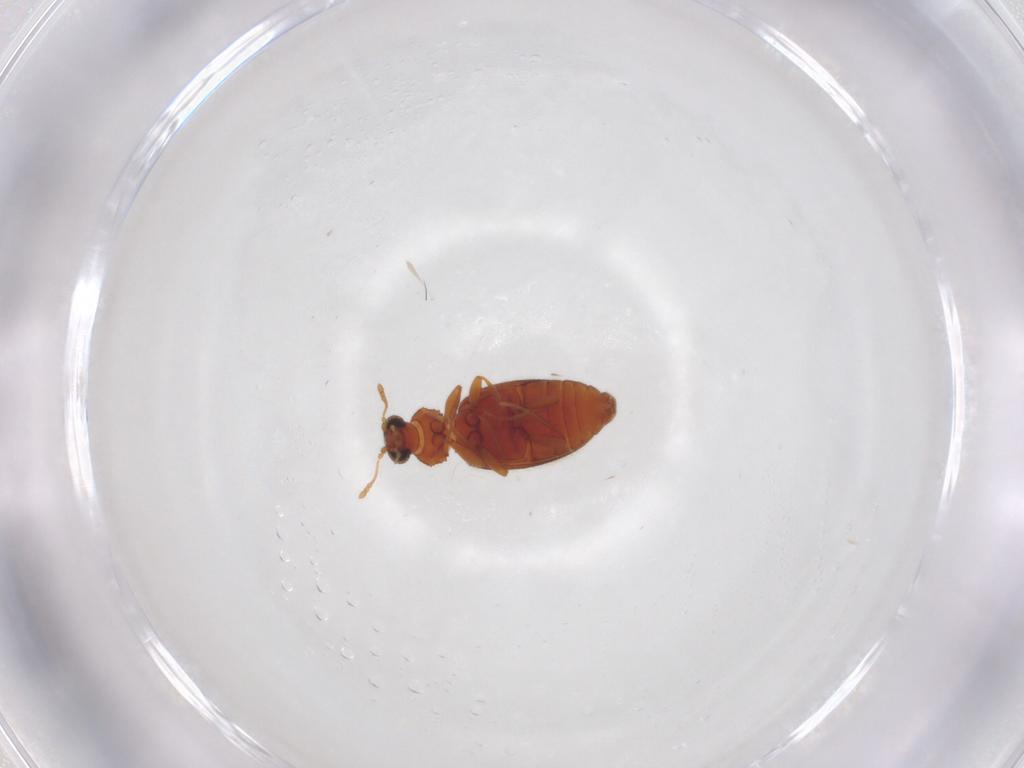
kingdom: Animalia
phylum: Arthropoda
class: Insecta
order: Coleoptera
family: Latridiidae
